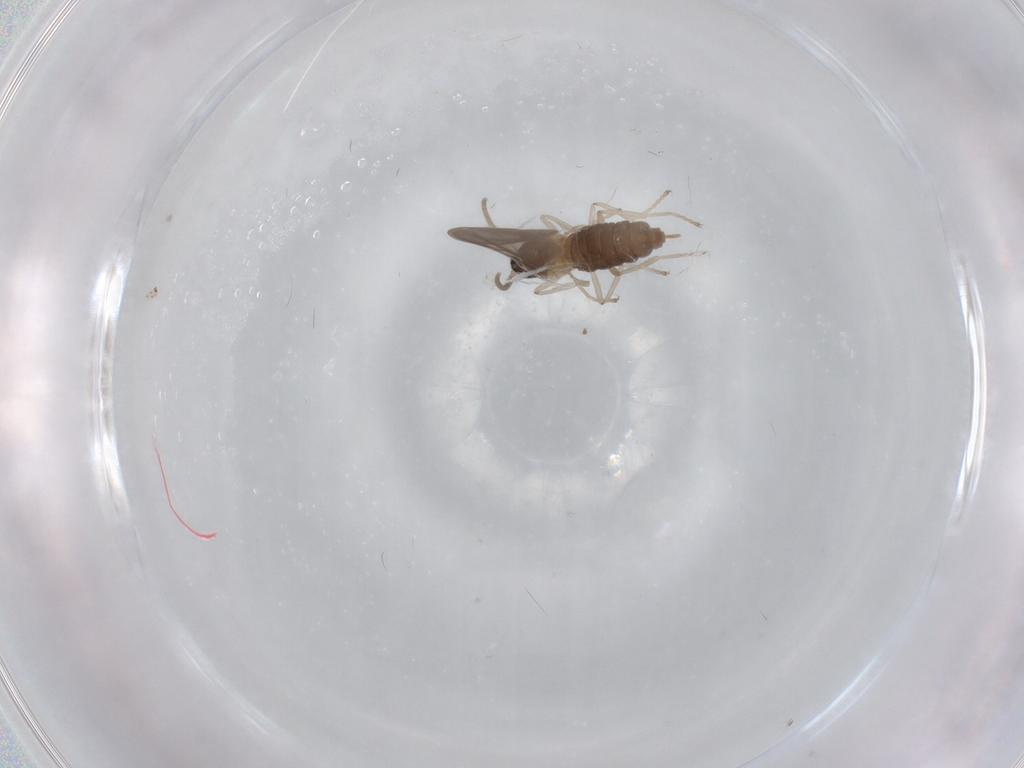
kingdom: Animalia
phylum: Arthropoda
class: Insecta
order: Diptera
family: Cecidomyiidae
